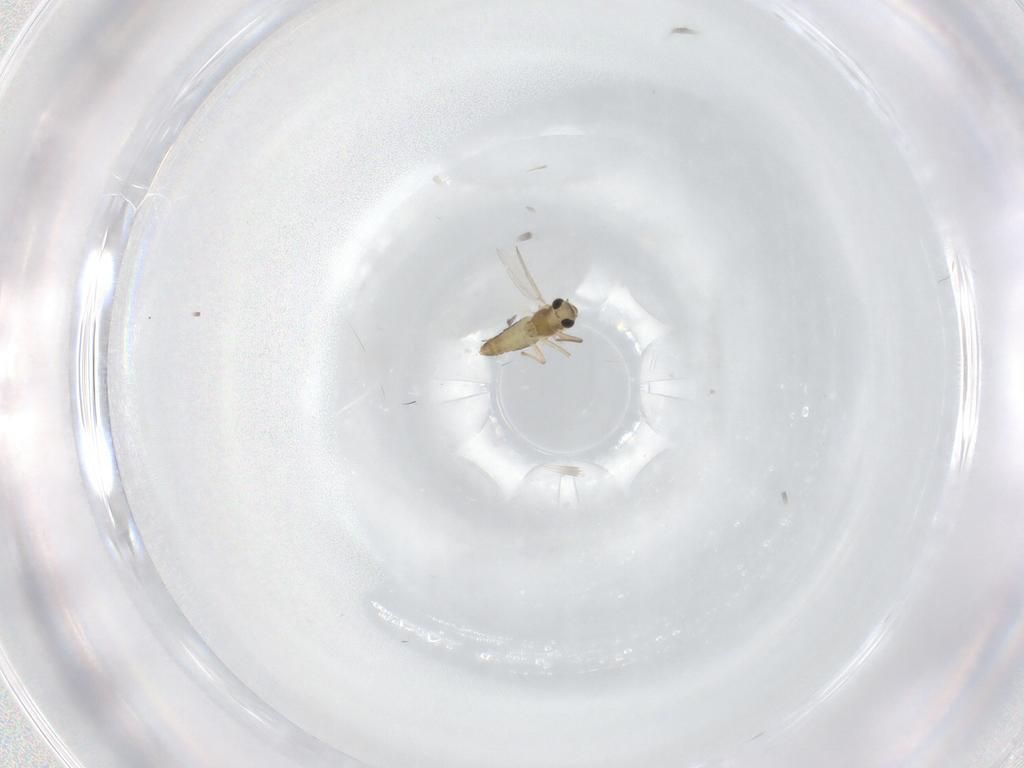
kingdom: Animalia
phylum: Arthropoda
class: Insecta
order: Diptera
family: Chironomidae
